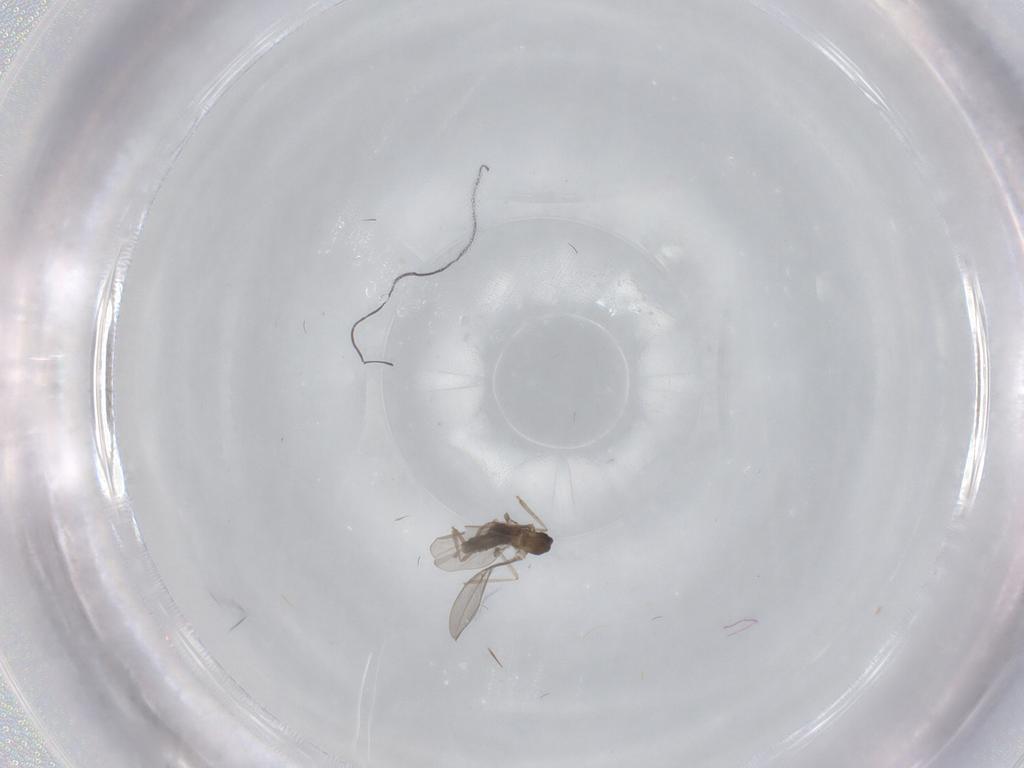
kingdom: Animalia
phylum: Arthropoda
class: Insecta
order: Diptera
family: Cecidomyiidae
